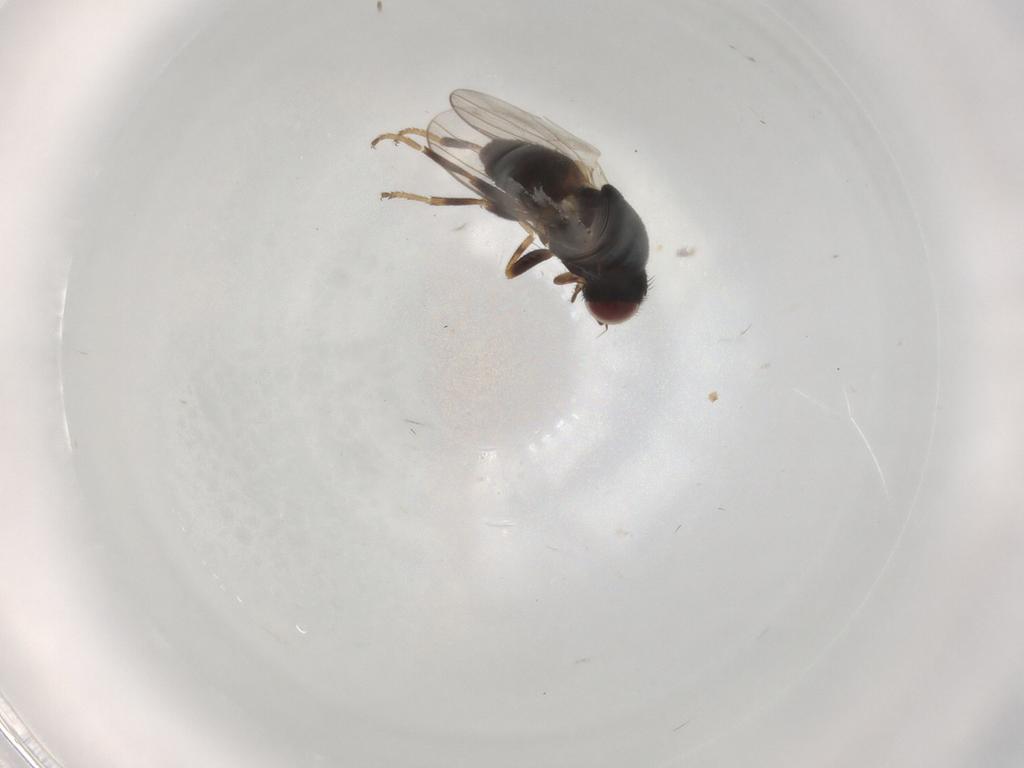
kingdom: Animalia
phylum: Arthropoda
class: Insecta
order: Diptera
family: Chloropidae
